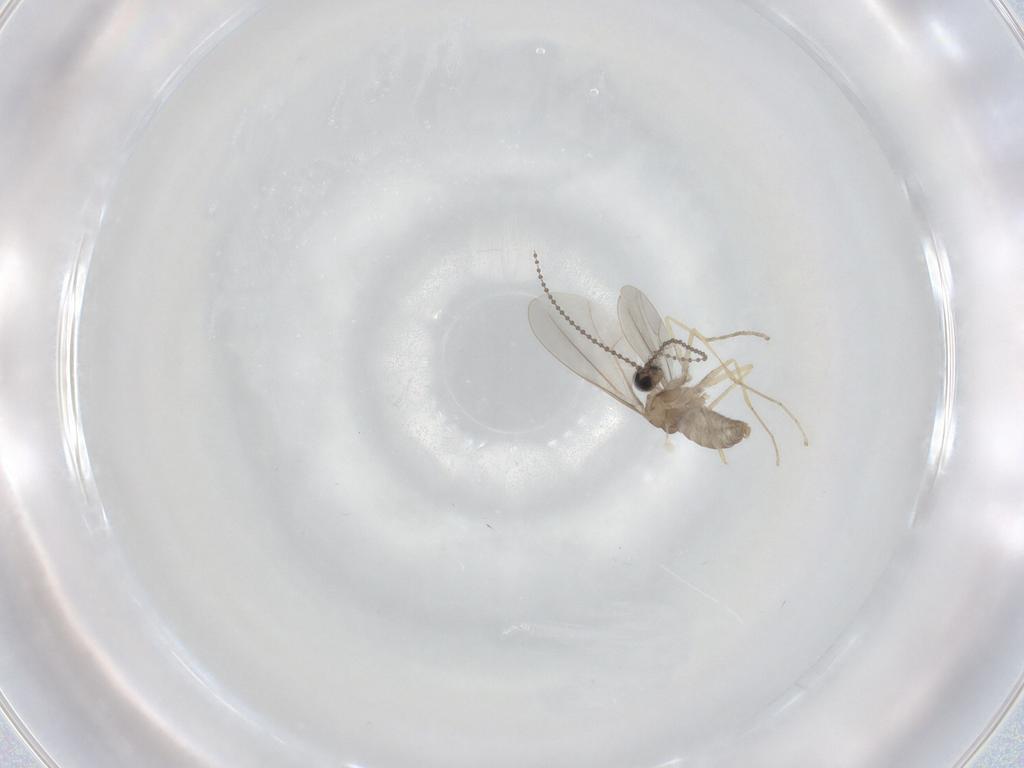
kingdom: Animalia
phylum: Arthropoda
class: Insecta
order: Diptera
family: Cecidomyiidae
